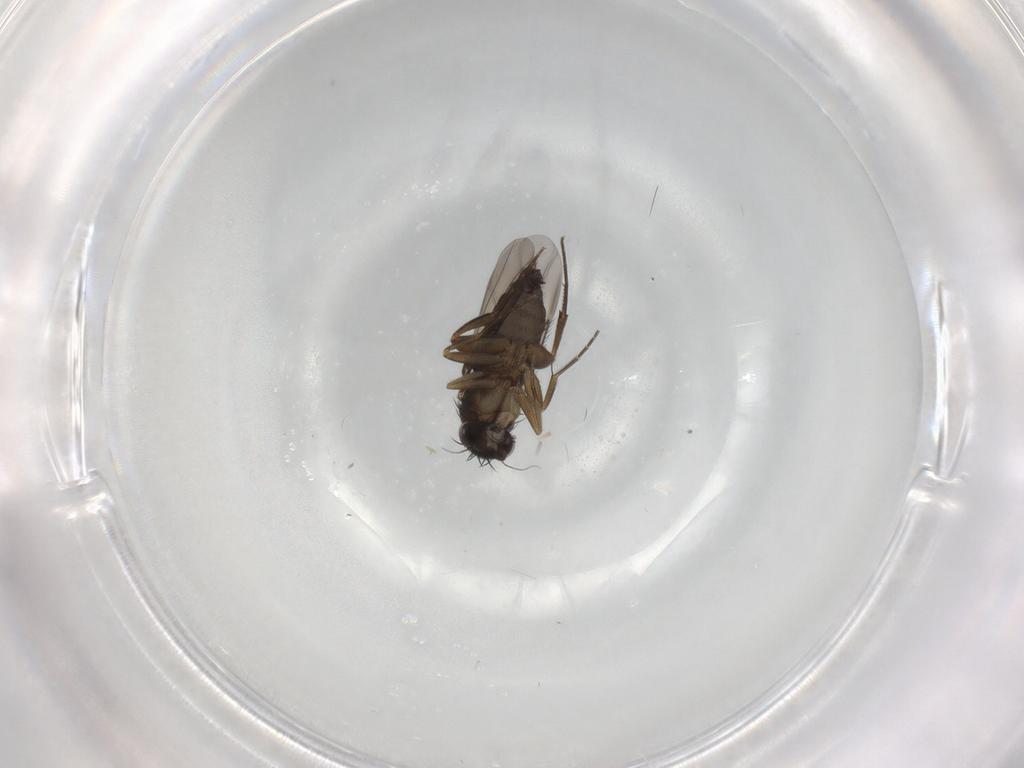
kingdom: Animalia
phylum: Arthropoda
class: Insecta
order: Diptera
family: Phoridae
